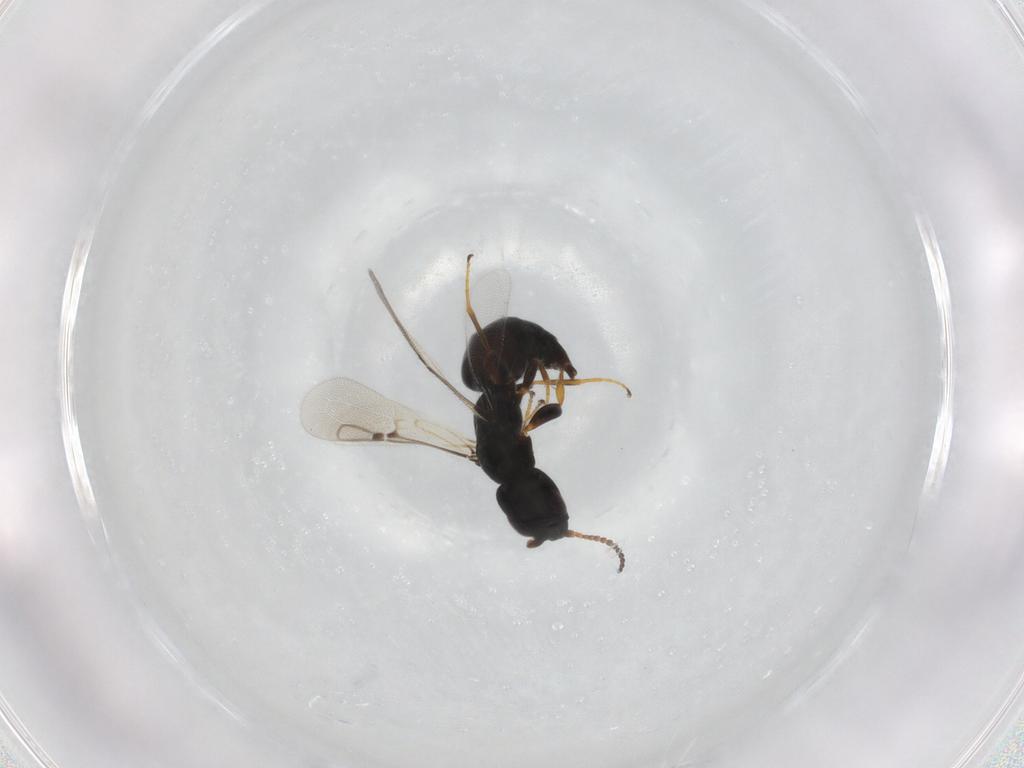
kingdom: Animalia
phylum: Arthropoda
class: Insecta
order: Hymenoptera
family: Bethylidae
